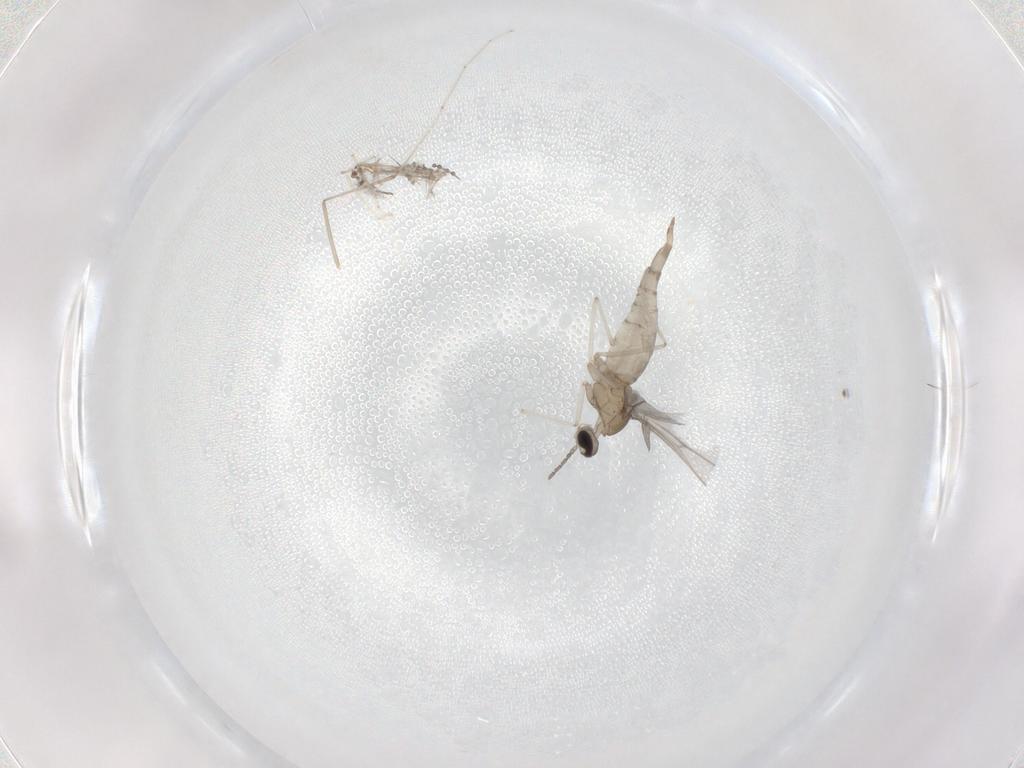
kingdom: Animalia
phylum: Arthropoda
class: Insecta
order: Diptera
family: Cecidomyiidae
